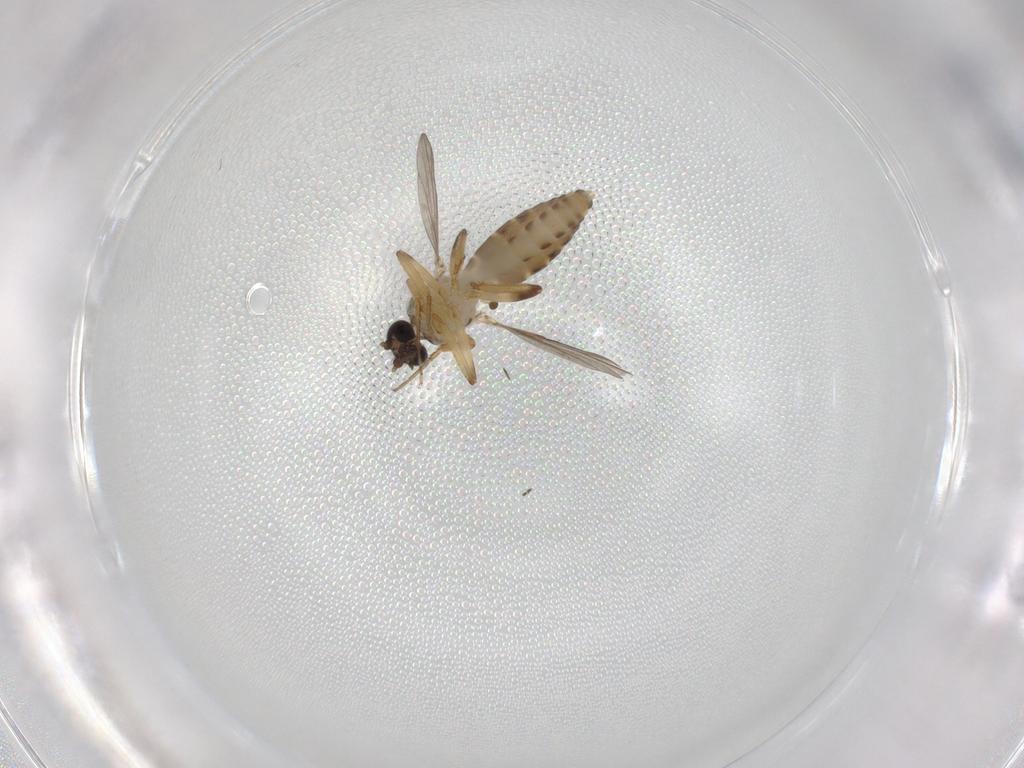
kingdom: Animalia
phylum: Arthropoda
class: Insecta
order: Diptera
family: Ceratopogonidae
